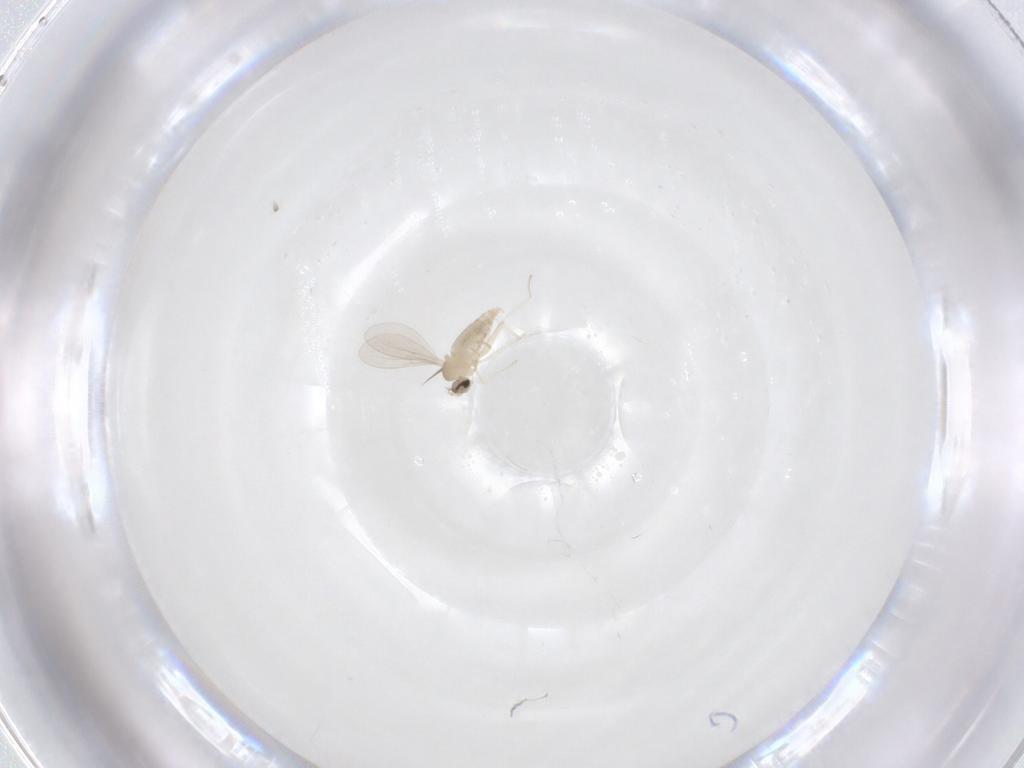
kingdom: Animalia
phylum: Arthropoda
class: Insecta
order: Diptera
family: Cecidomyiidae
